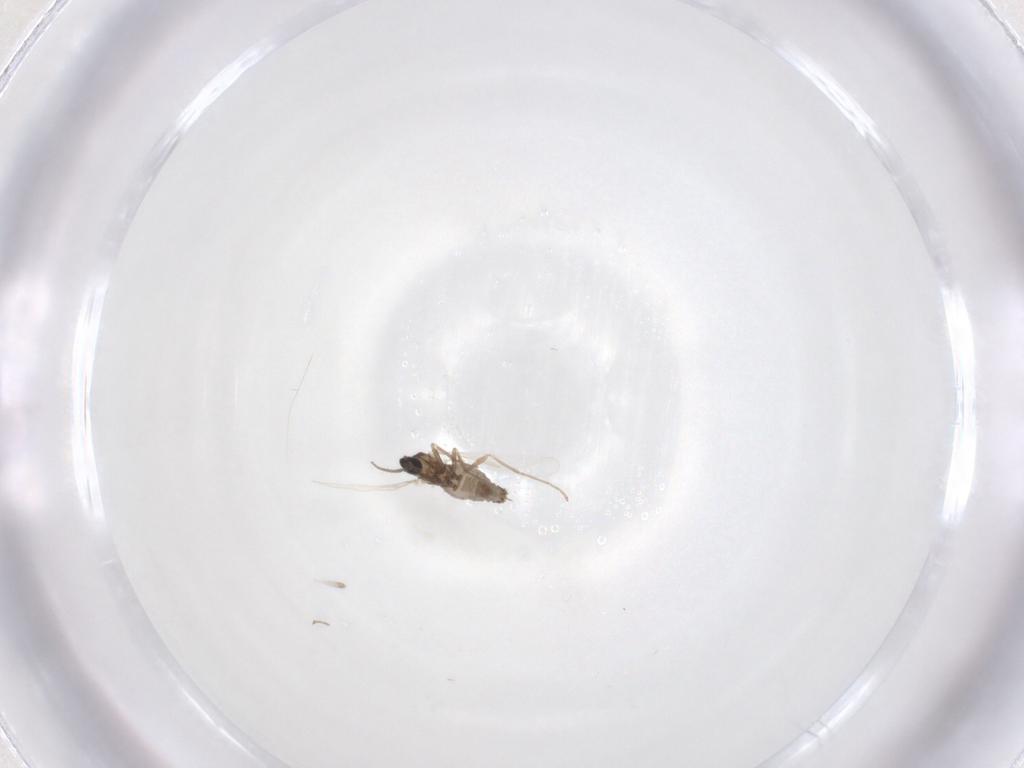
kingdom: Animalia
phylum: Arthropoda
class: Insecta
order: Diptera
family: Cecidomyiidae
